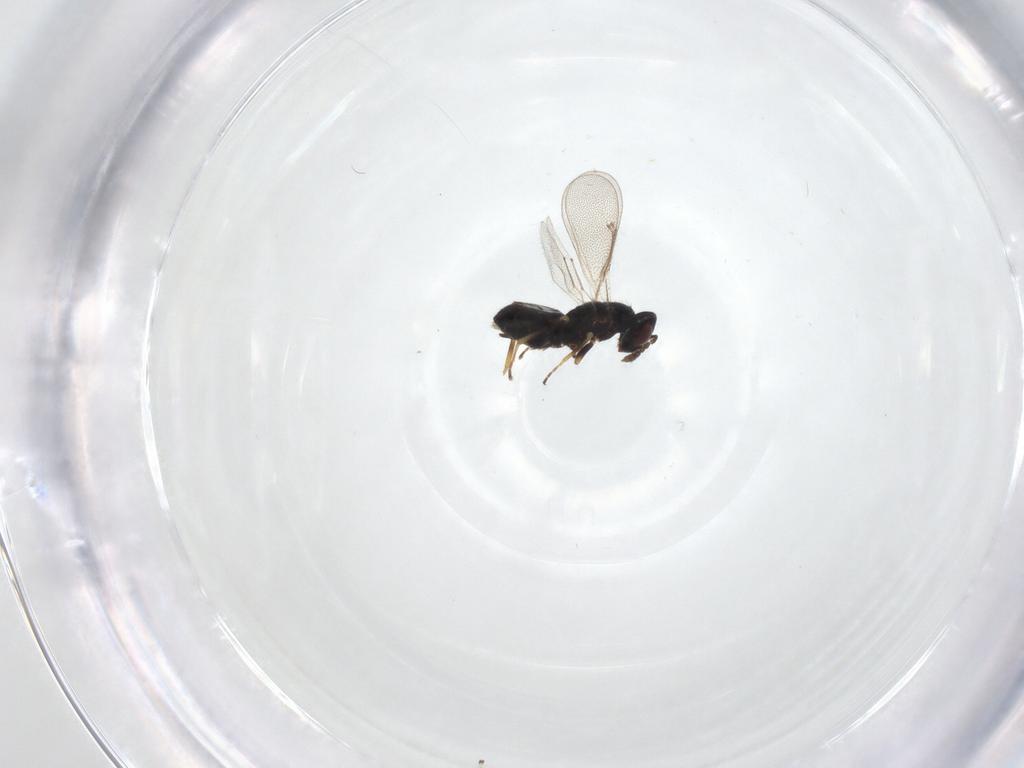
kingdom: Animalia
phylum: Arthropoda
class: Insecta
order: Hymenoptera
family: Eulophidae
